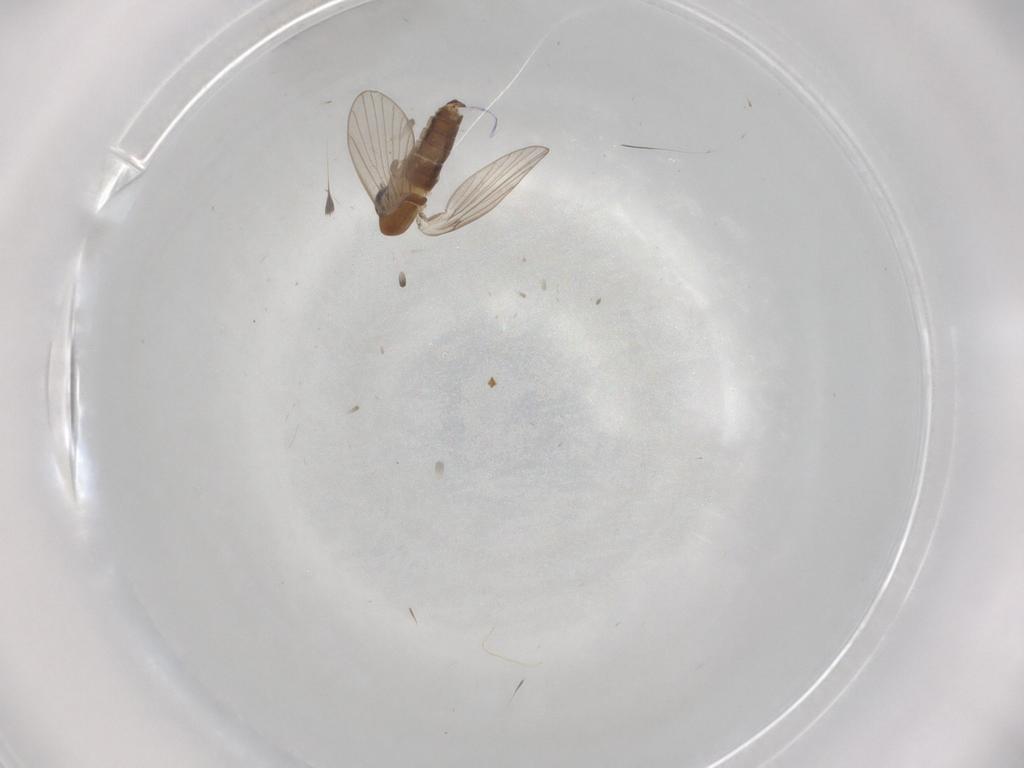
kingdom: Animalia
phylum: Arthropoda
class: Insecta
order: Diptera
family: Psychodidae
